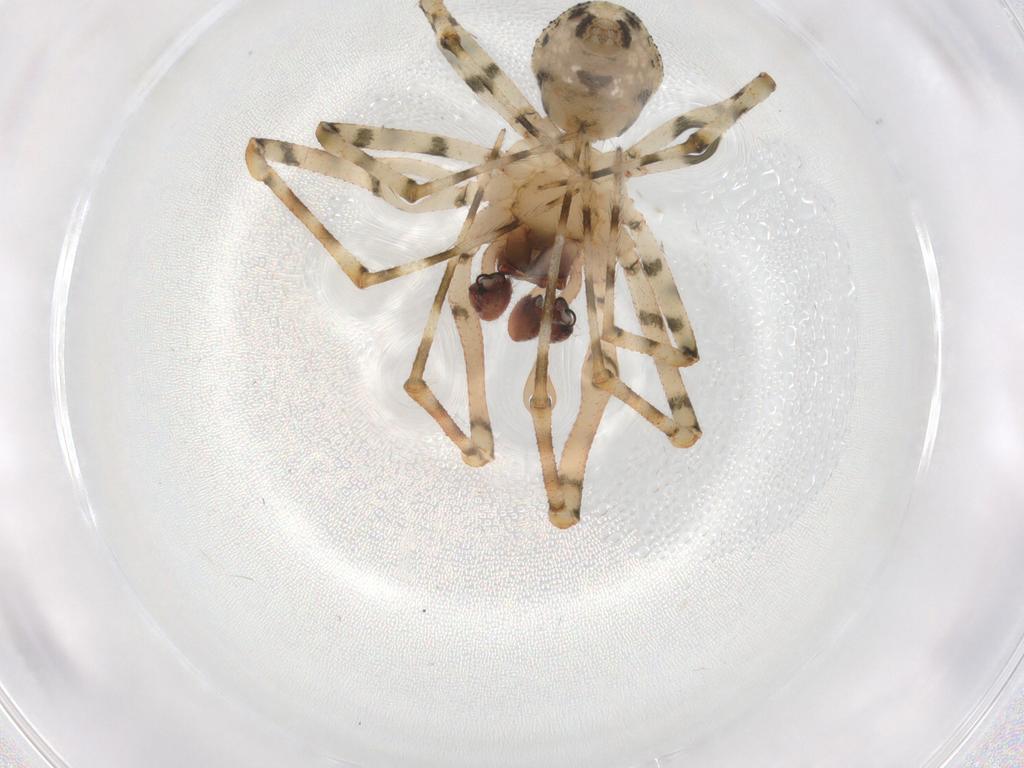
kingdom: Animalia
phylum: Arthropoda
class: Arachnida
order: Araneae
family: Theridiidae
